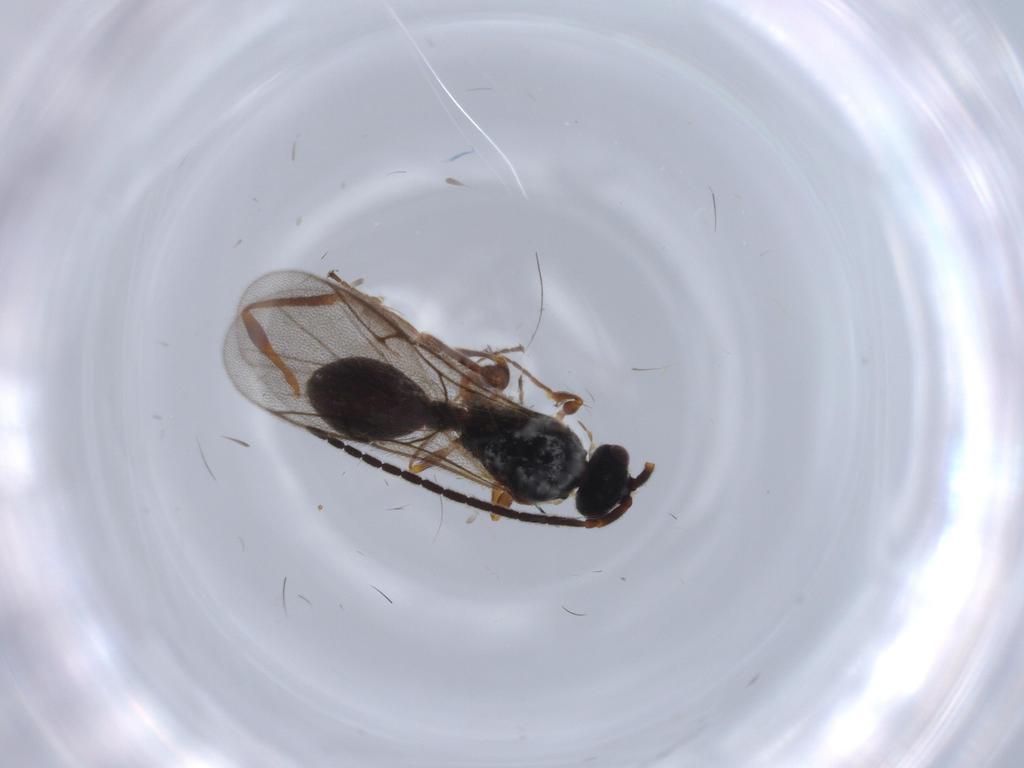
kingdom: Animalia
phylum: Arthropoda
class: Insecta
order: Hymenoptera
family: Diapriidae
